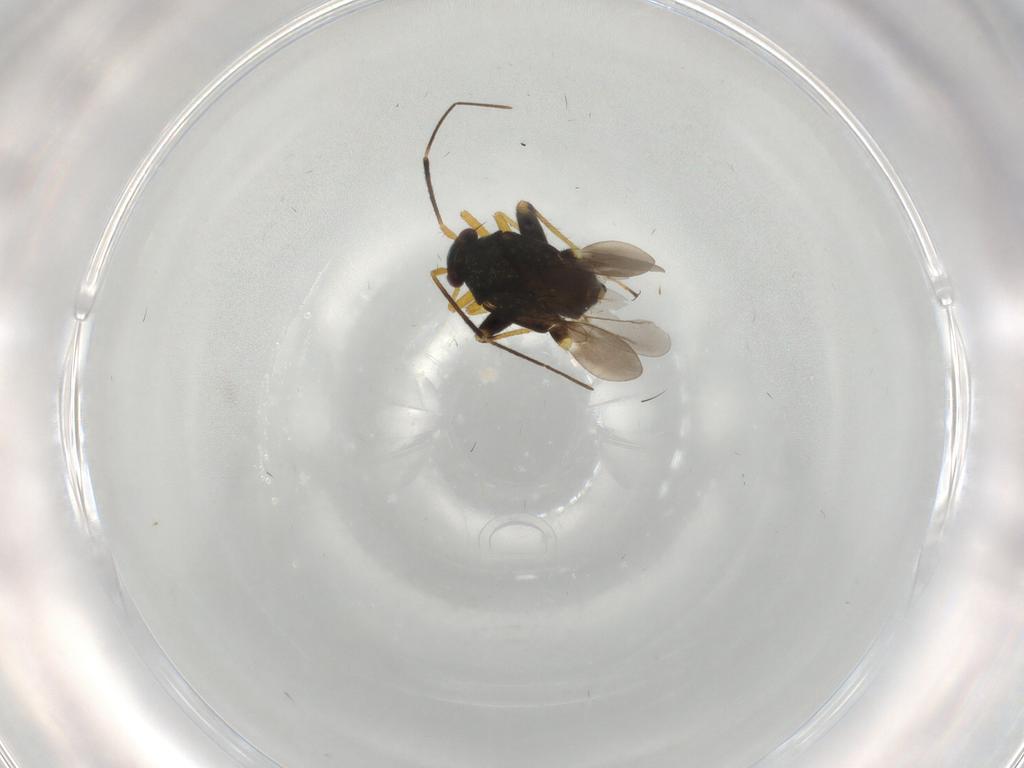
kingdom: Animalia
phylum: Arthropoda
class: Insecta
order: Hemiptera
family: Miridae
